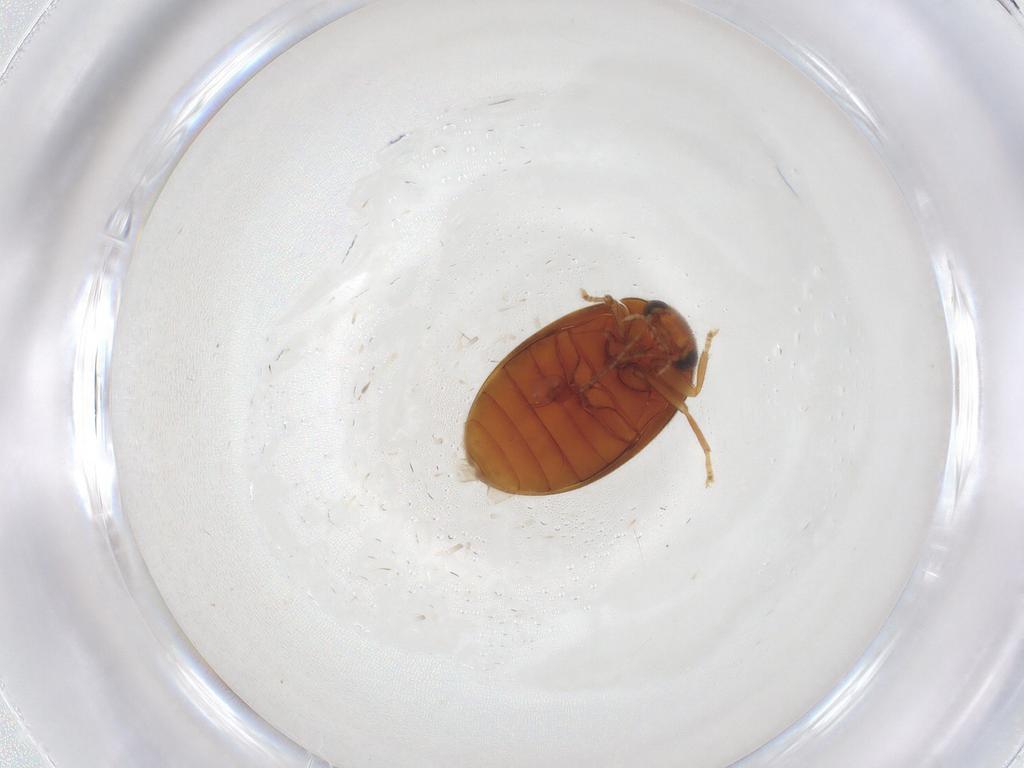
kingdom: Animalia
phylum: Arthropoda
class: Insecta
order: Coleoptera
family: Scirtidae
